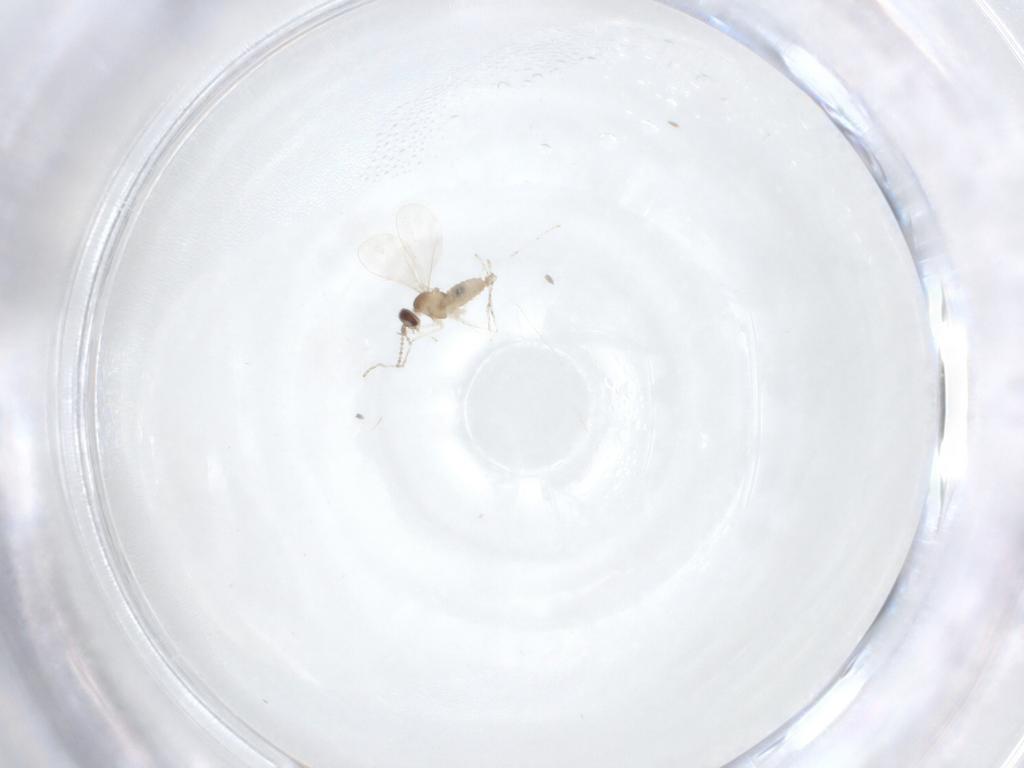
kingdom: Animalia
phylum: Arthropoda
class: Insecta
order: Diptera
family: Cecidomyiidae
